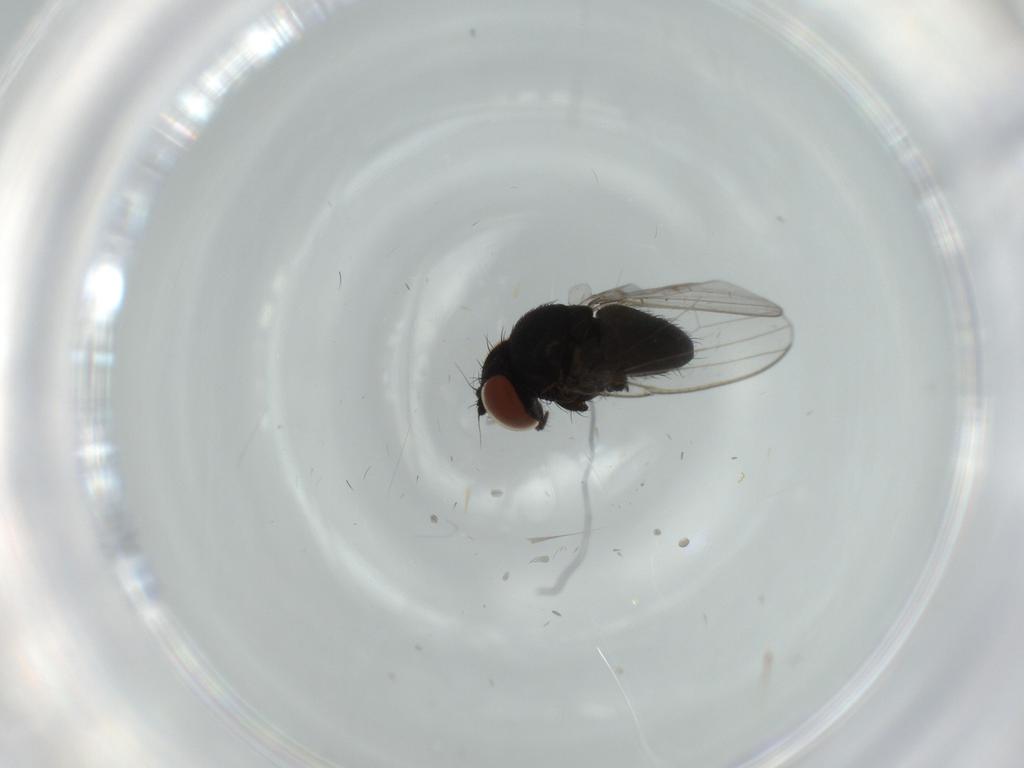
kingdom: Animalia
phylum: Arthropoda
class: Insecta
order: Diptera
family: Milichiidae
